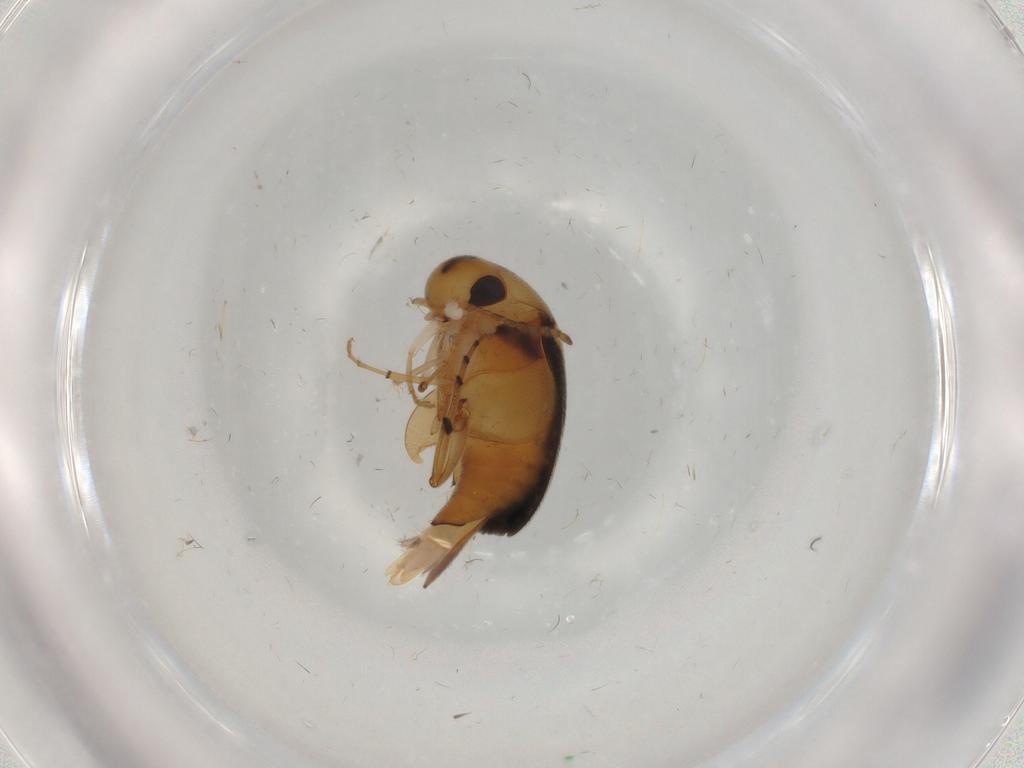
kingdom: Animalia
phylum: Arthropoda
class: Insecta
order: Coleoptera
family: Mordellidae
